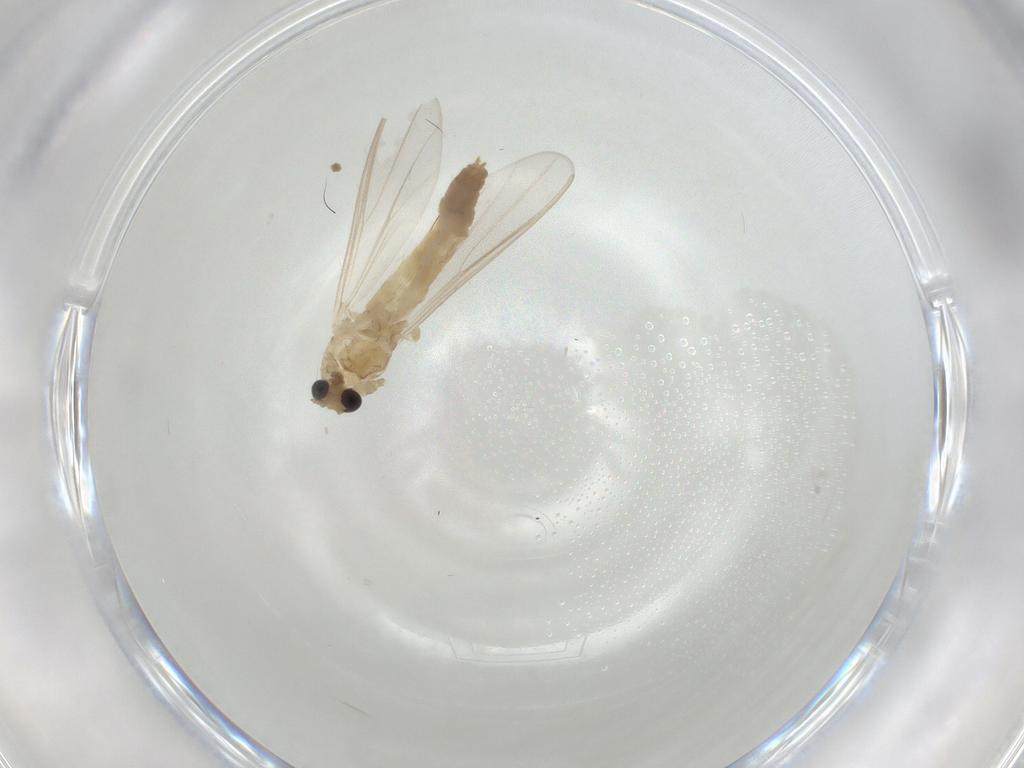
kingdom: Animalia
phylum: Arthropoda
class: Insecta
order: Diptera
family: Chironomidae
